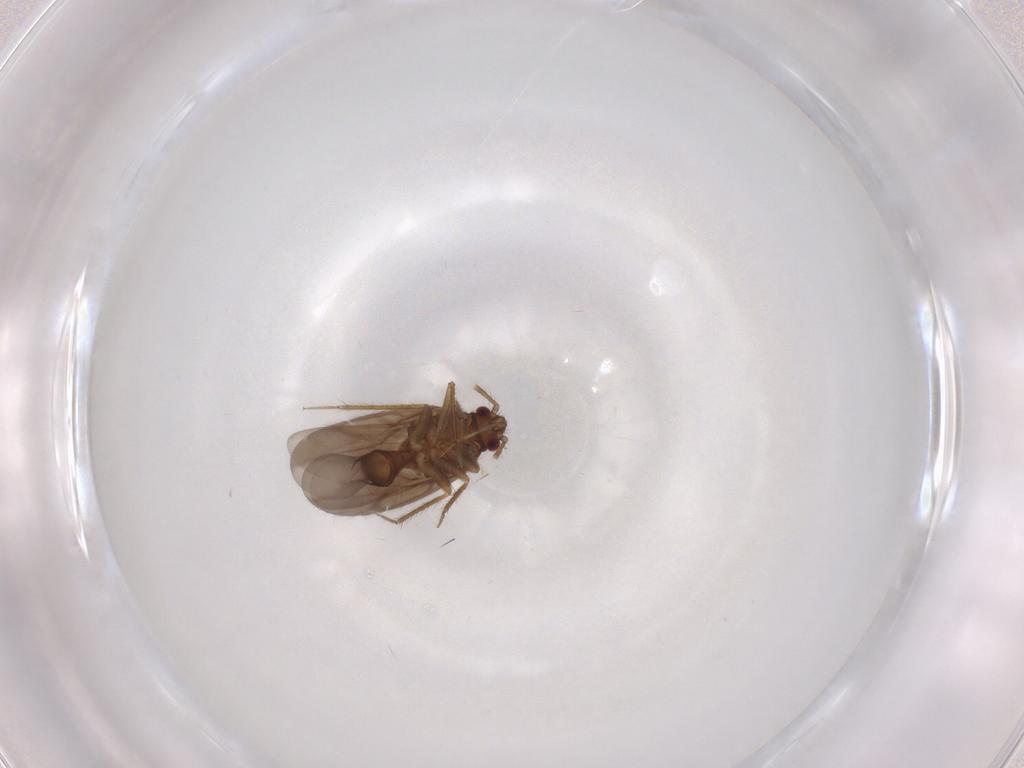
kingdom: Animalia
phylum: Arthropoda
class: Insecta
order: Hemiptera
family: Ceratocombidae
